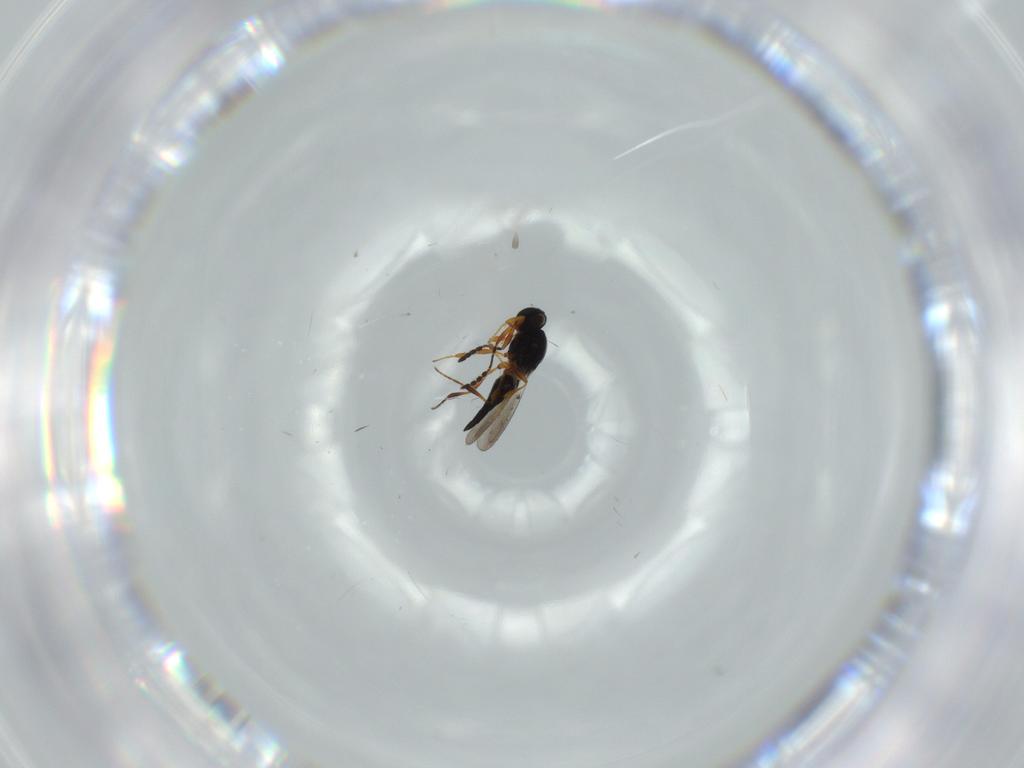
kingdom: Animalia
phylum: Arthropoda
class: Insecta
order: Hymenoptera
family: Platygastridae
